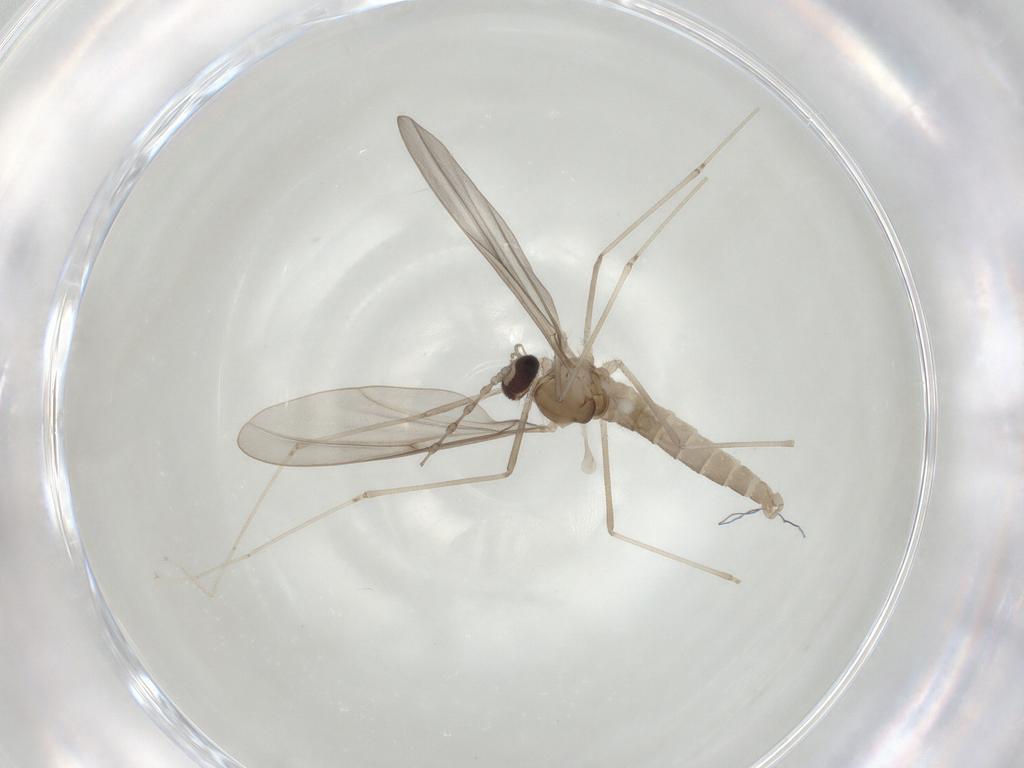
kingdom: Animalia
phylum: Arthropoda
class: Insecta
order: Diptera
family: Cecidomyiidae
